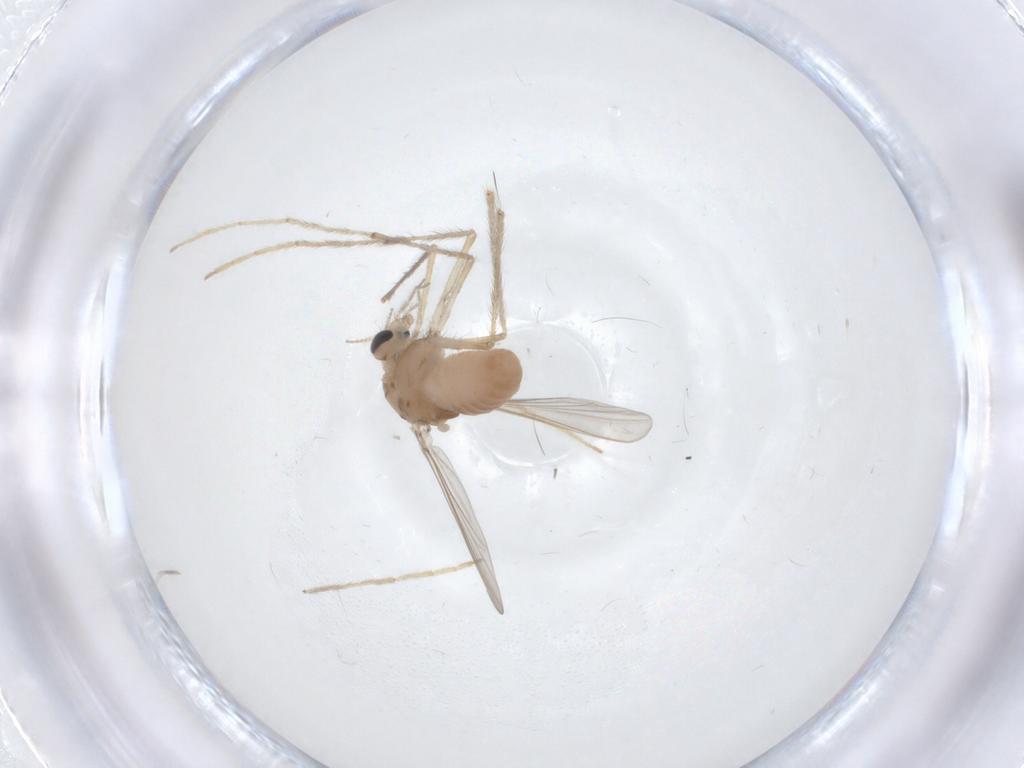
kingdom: Animalia
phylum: Arthropoda
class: Insecta
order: Diptera
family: Chironomidae
